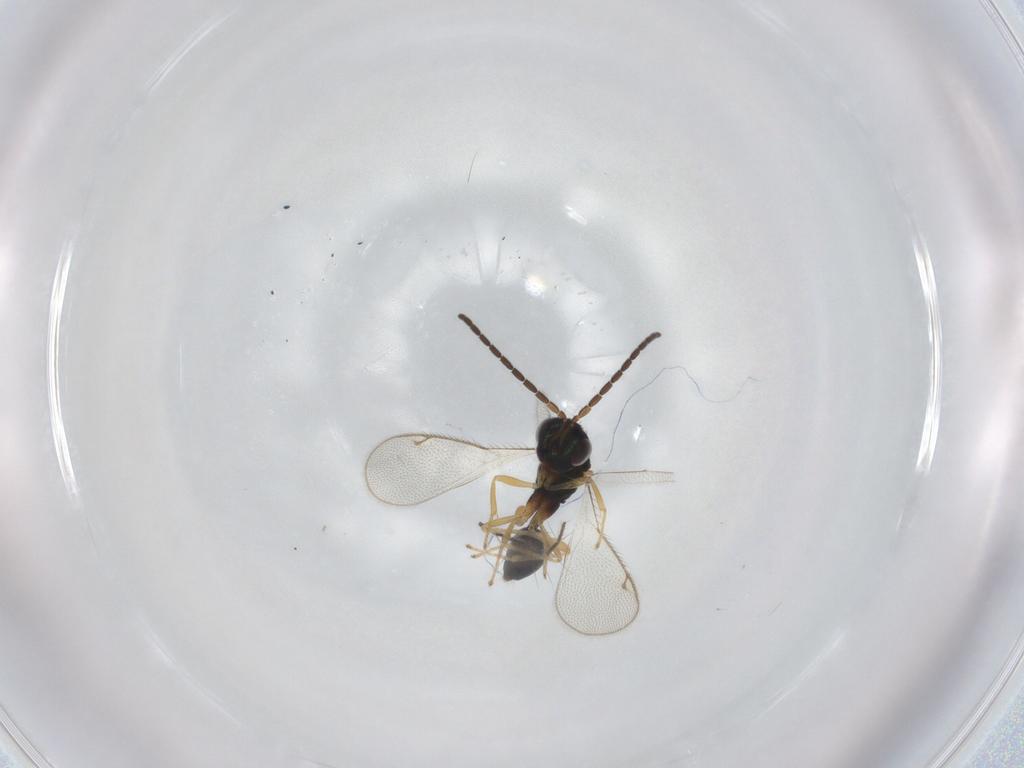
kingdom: Animalia
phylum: Arthropoda
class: Insecta
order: Hymenoptera
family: Diparidae
